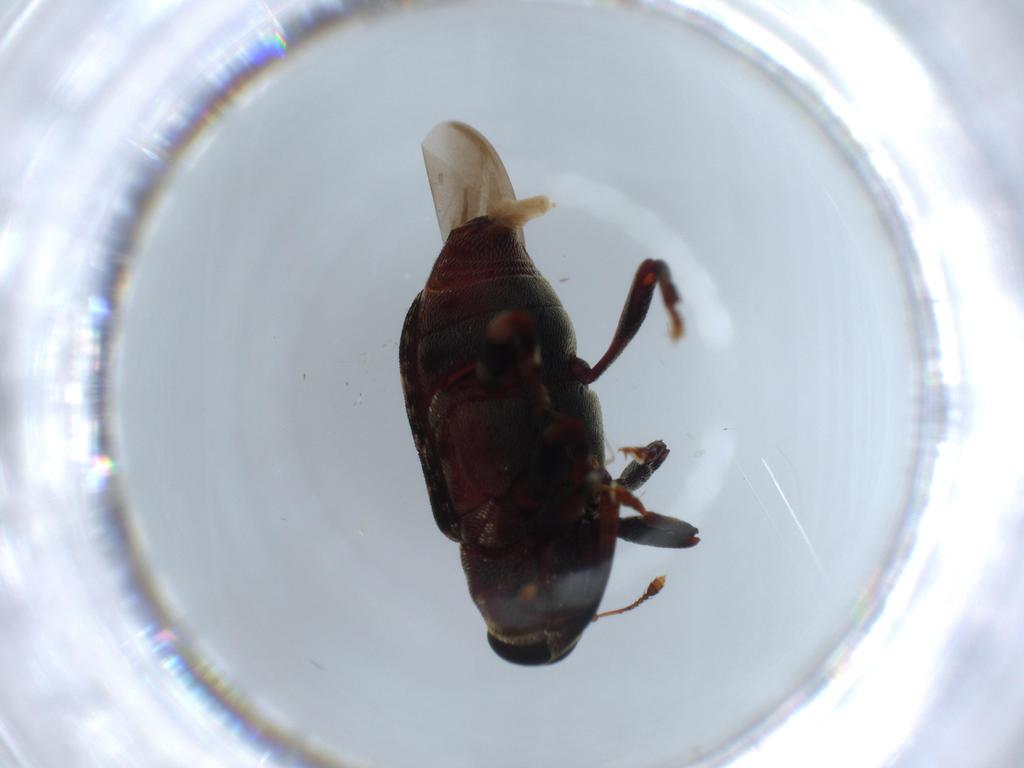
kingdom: Animalia
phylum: Arthropoda
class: Insecta
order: Coleoptera
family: Curculionidae
